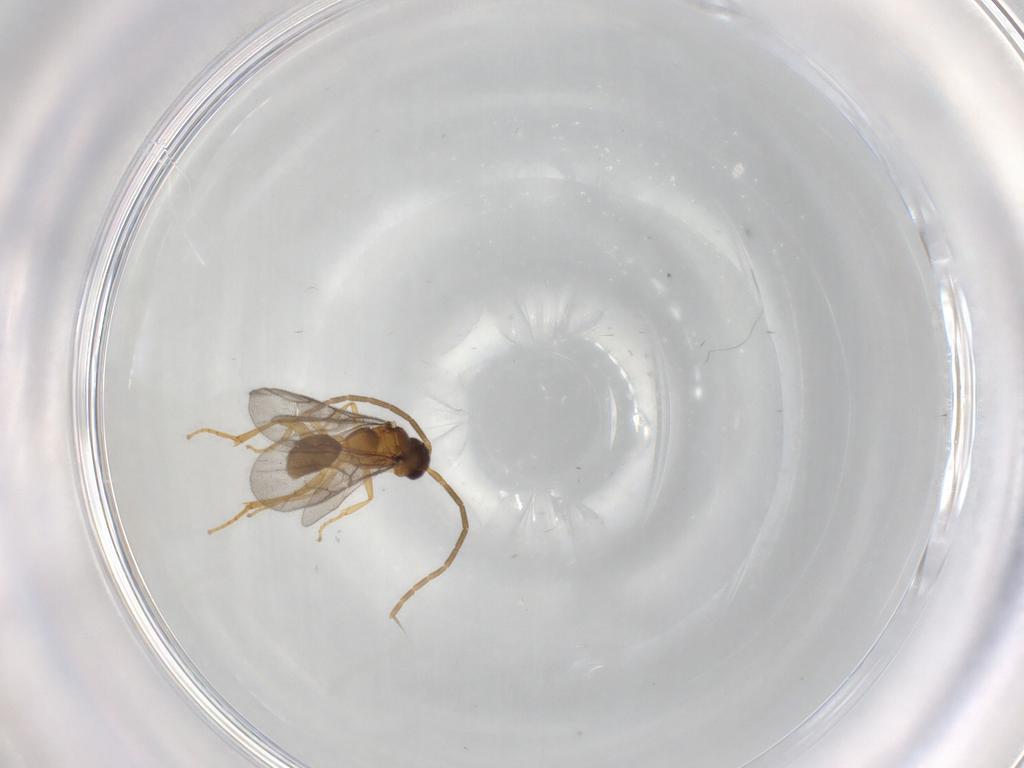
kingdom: Animalia
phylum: Arthropoda
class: Insecta
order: Hymenoptera
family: Embolemidae
